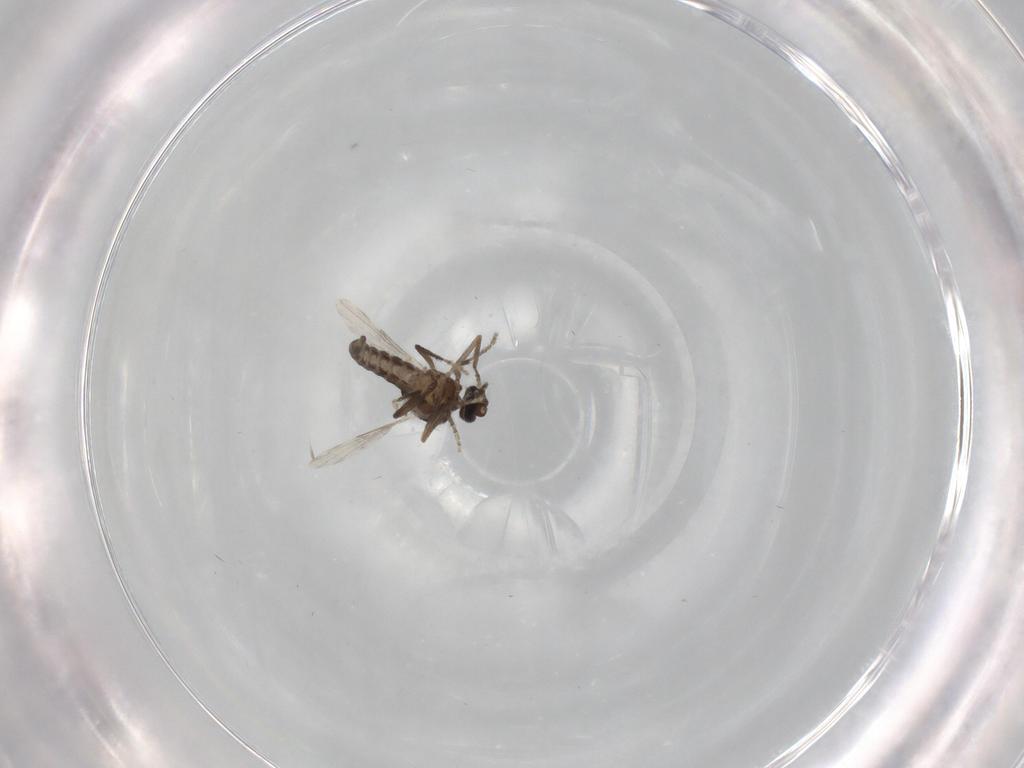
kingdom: Animalia
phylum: Arthropoda
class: Insecta
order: Diptera
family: Ceratopogonidae
